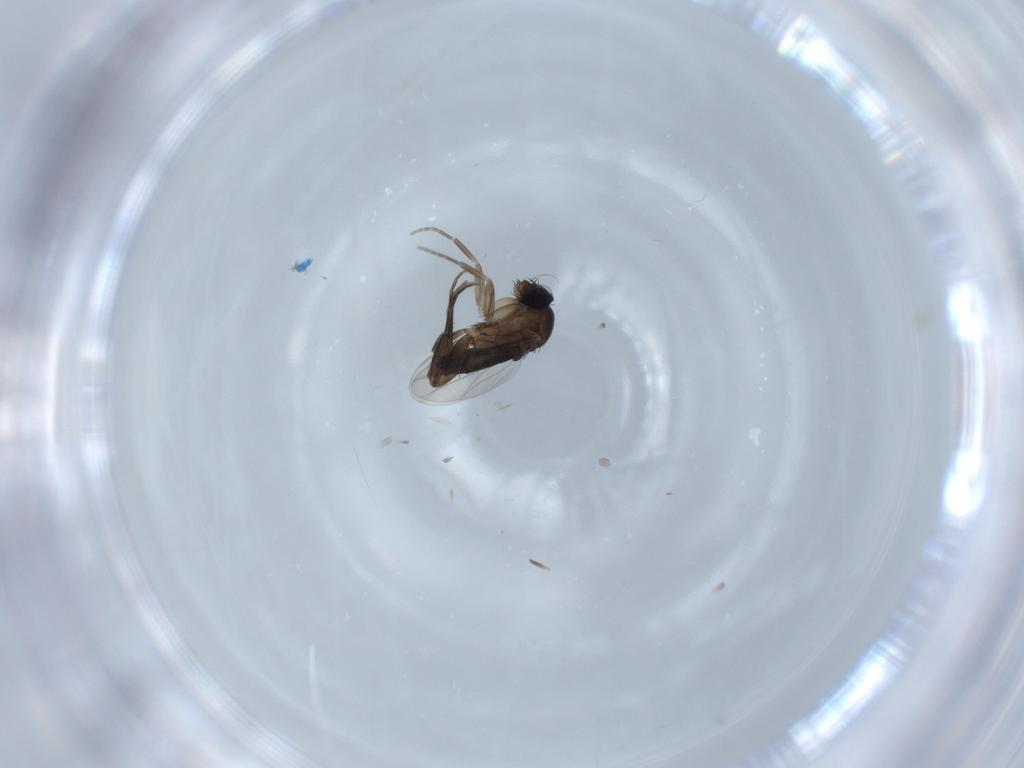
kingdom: Animalia
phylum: Arthropoda
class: Insecta
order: Diptera
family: Phoridae
